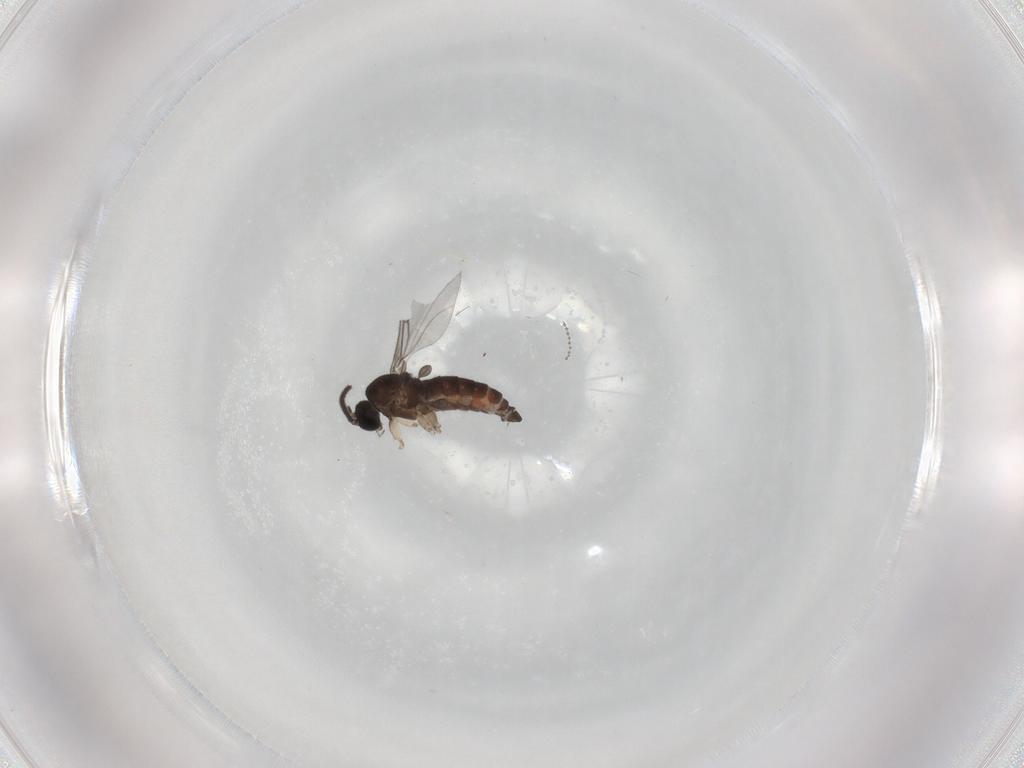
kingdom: Animalia
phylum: Arthropoda
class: Insecta
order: Diptera
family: Sciaridae
